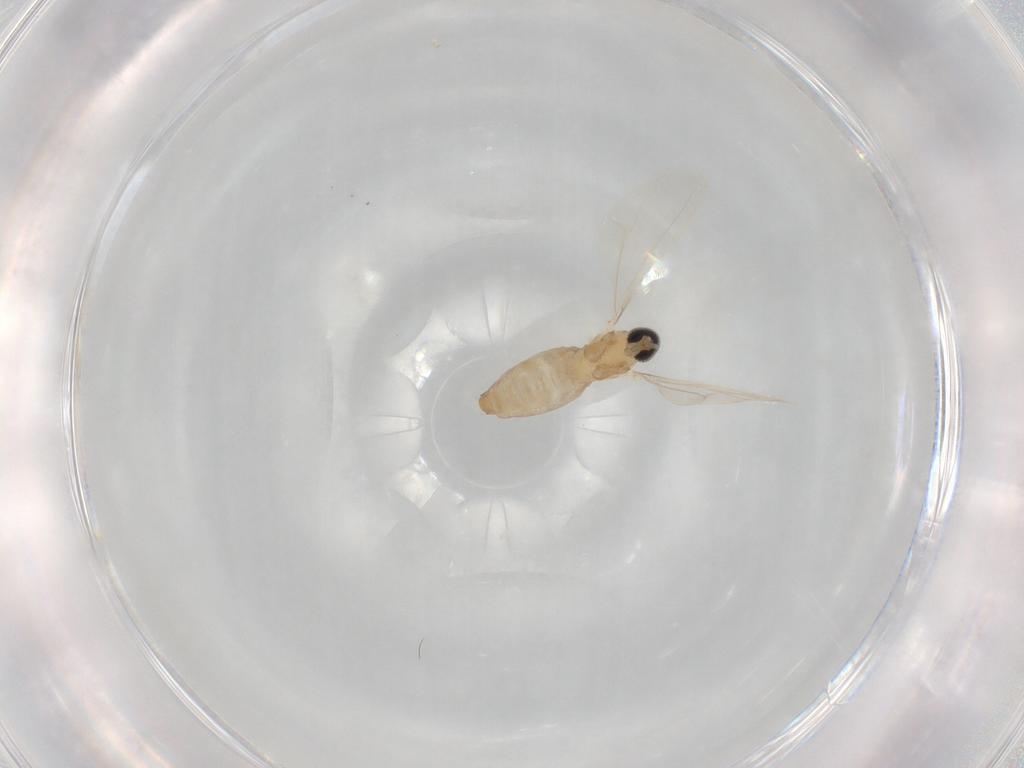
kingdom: Animalia
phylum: Arthropoda
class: Insecta
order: Diptera
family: Cecidomyiidae
